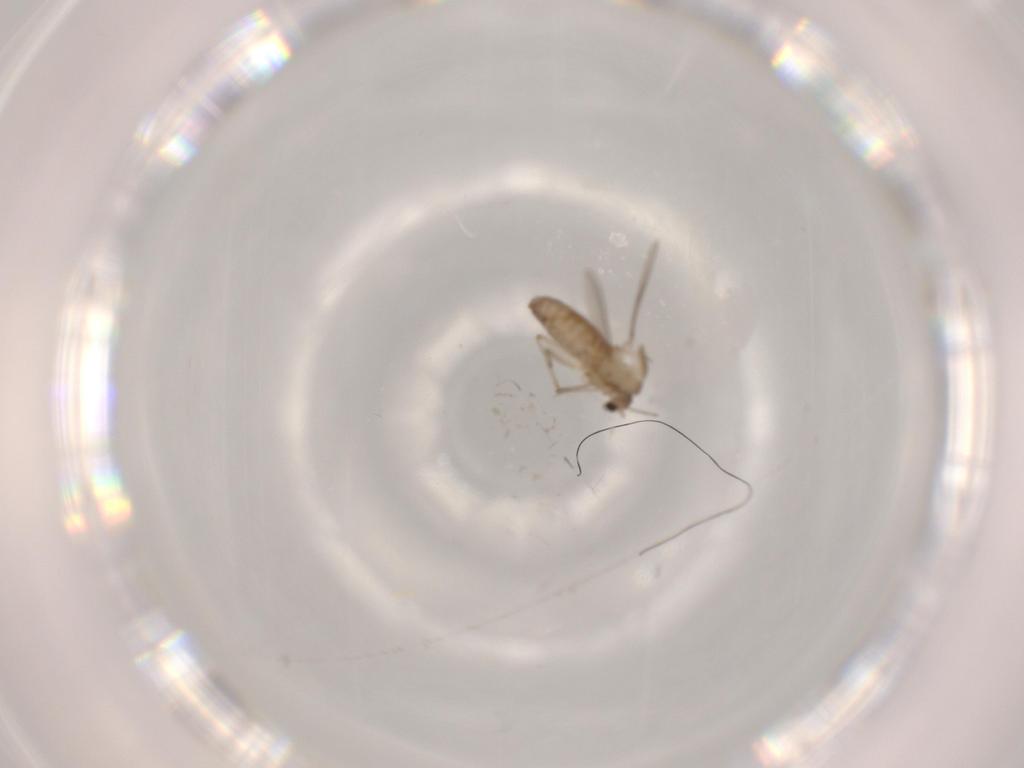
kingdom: Animalia
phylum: Arthropoda
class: Insecta
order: Diptera
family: Chironomidae
